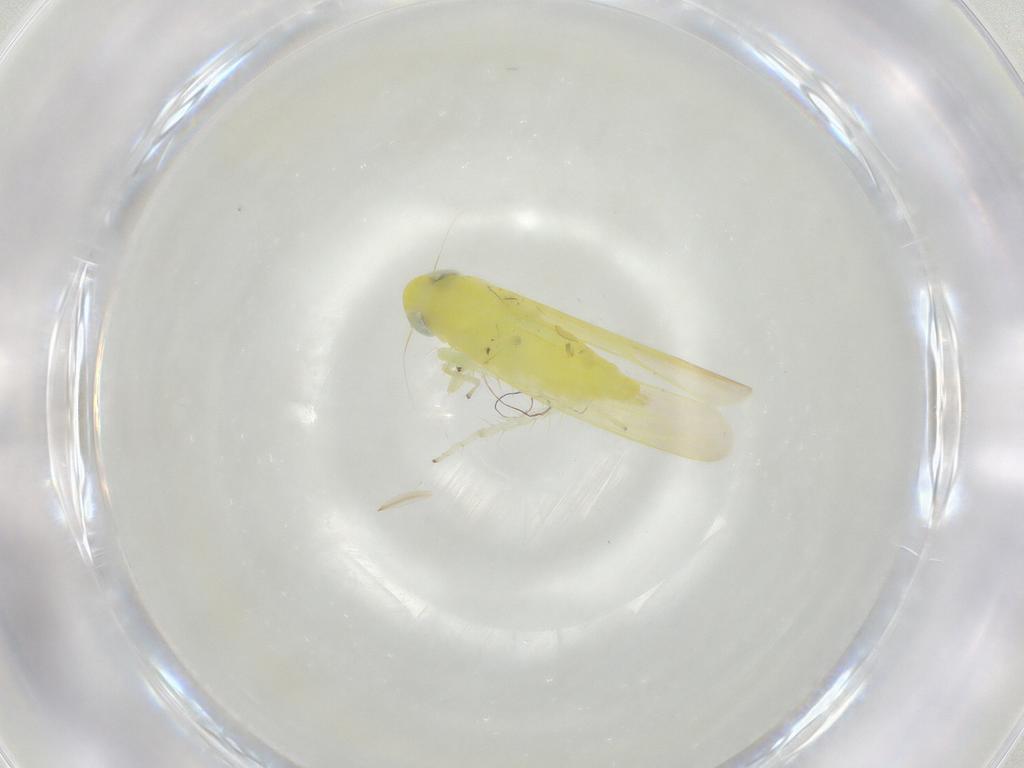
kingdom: Animalia
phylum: Arthropoda
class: Insecta
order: Hemiptera
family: Cicadellidae
